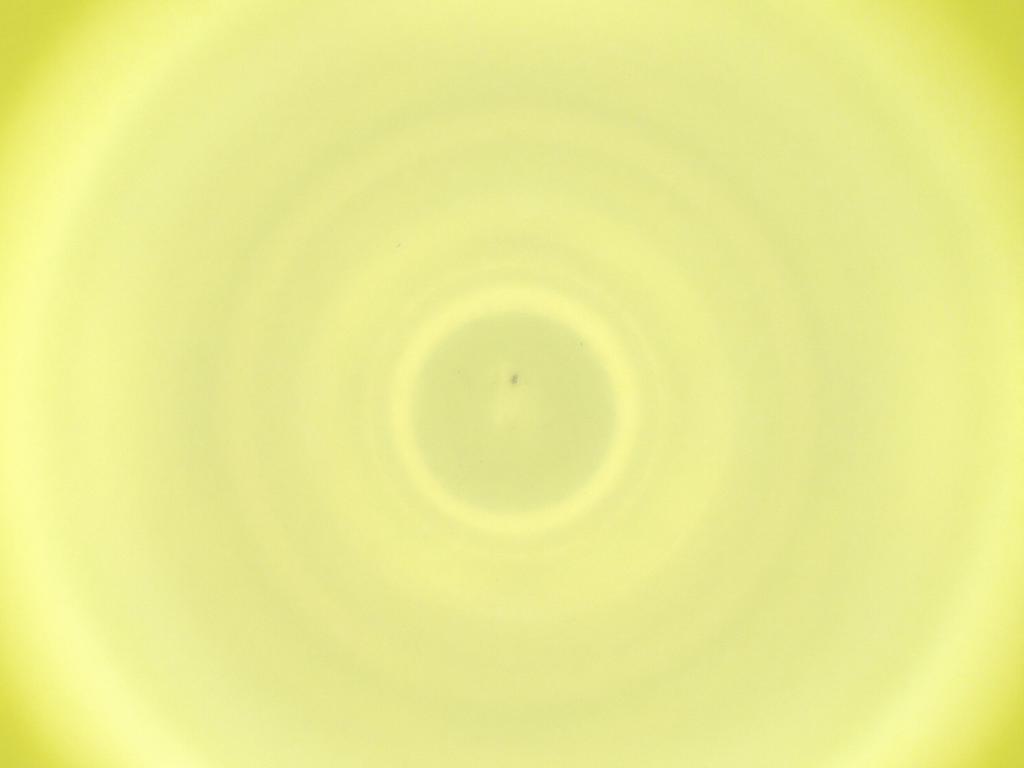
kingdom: Animalia
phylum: Arthropoda
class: Insecta
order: Diptera
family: Cecidomyiidae
